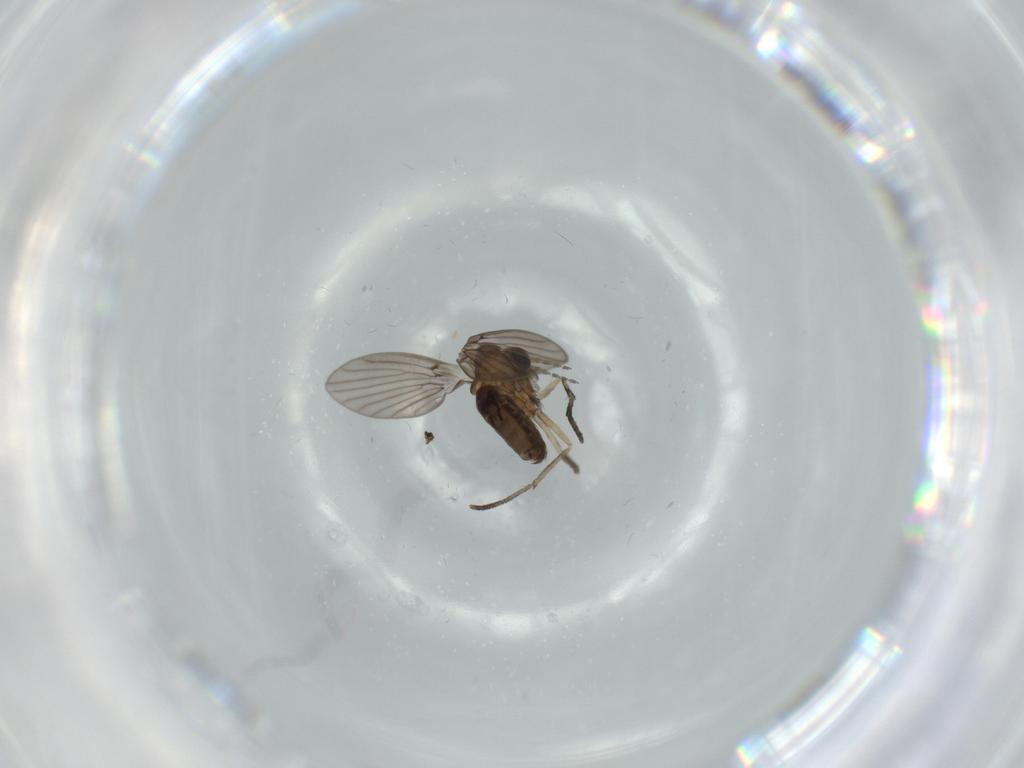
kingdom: Animalia
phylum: Arthropoda
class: Insecta
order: Diptera
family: Psychodidae
